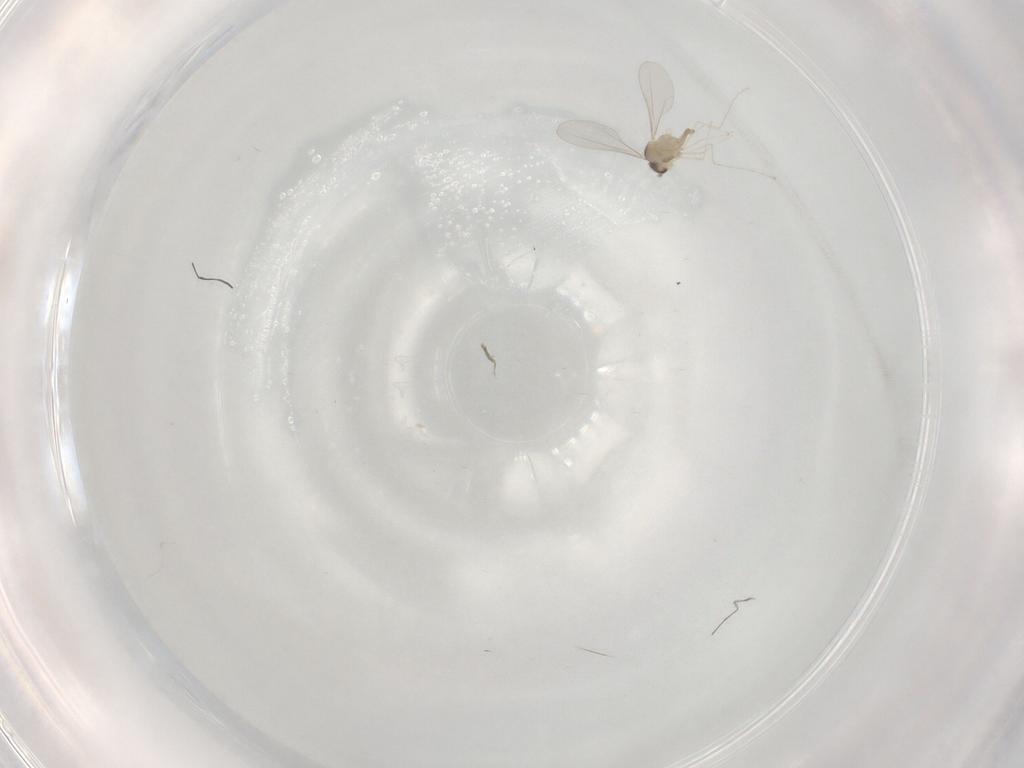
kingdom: Animalia
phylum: Arthropoda
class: Insecta
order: Diptera
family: Cecidomyiidae
